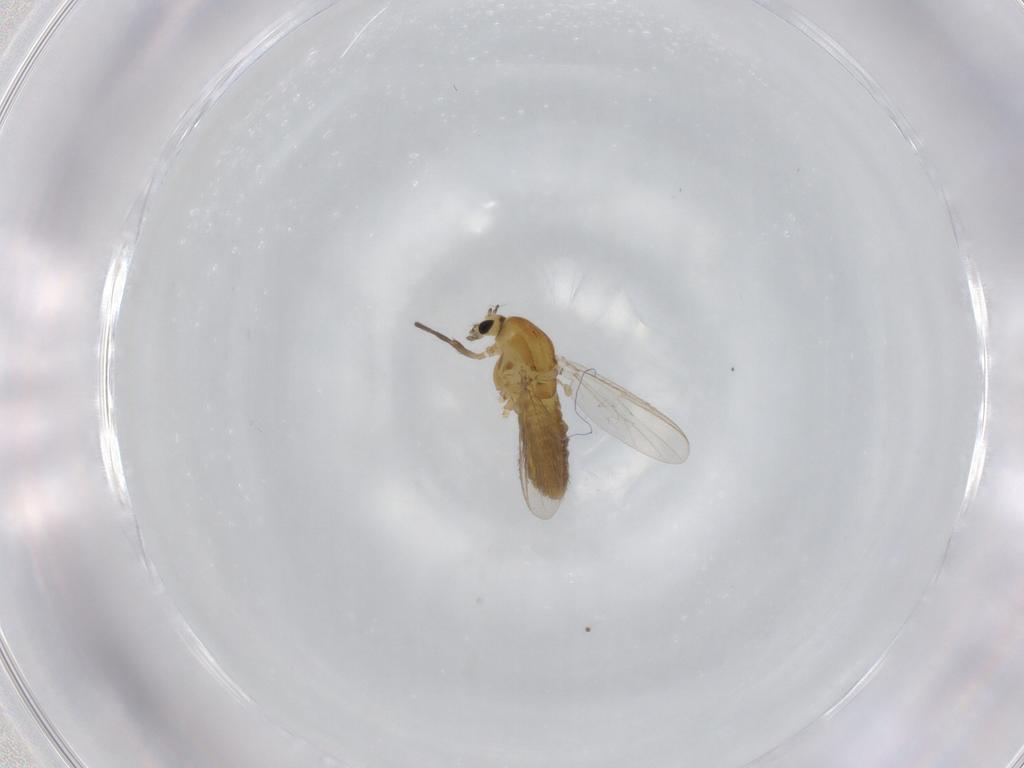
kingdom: Animalia
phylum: Arthropoda
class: Insecta
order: Diptera
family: Chironomidae
